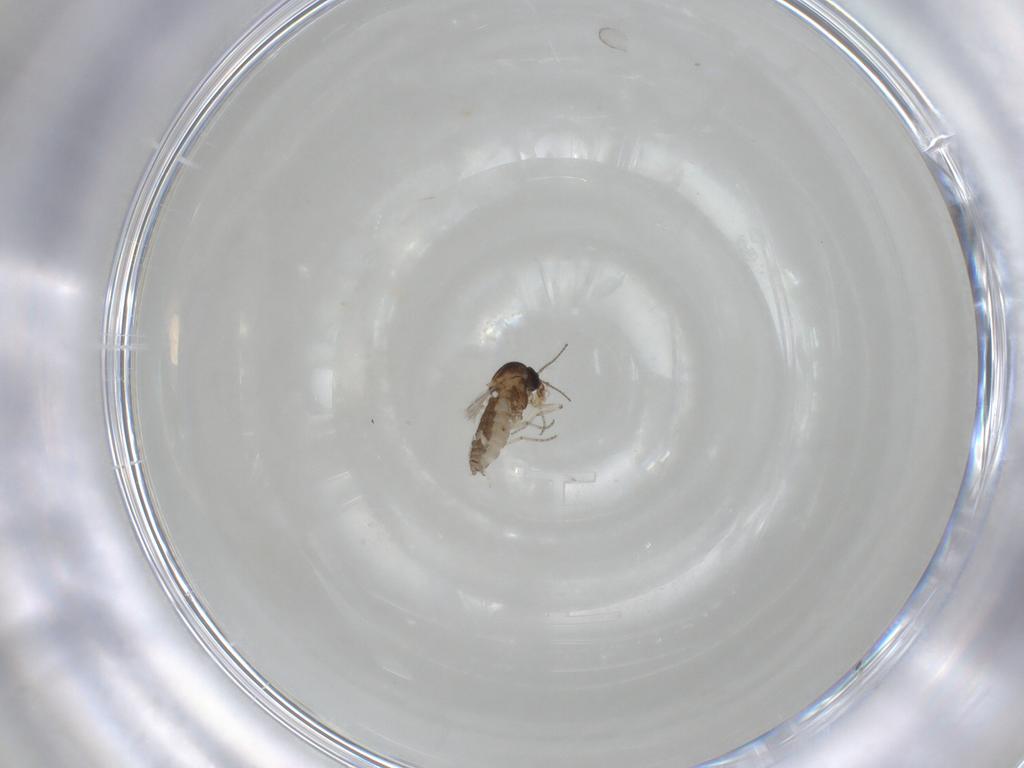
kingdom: Animalia
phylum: Arthropoda
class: Insecta
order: Diptera
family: Ceratopogonidae
